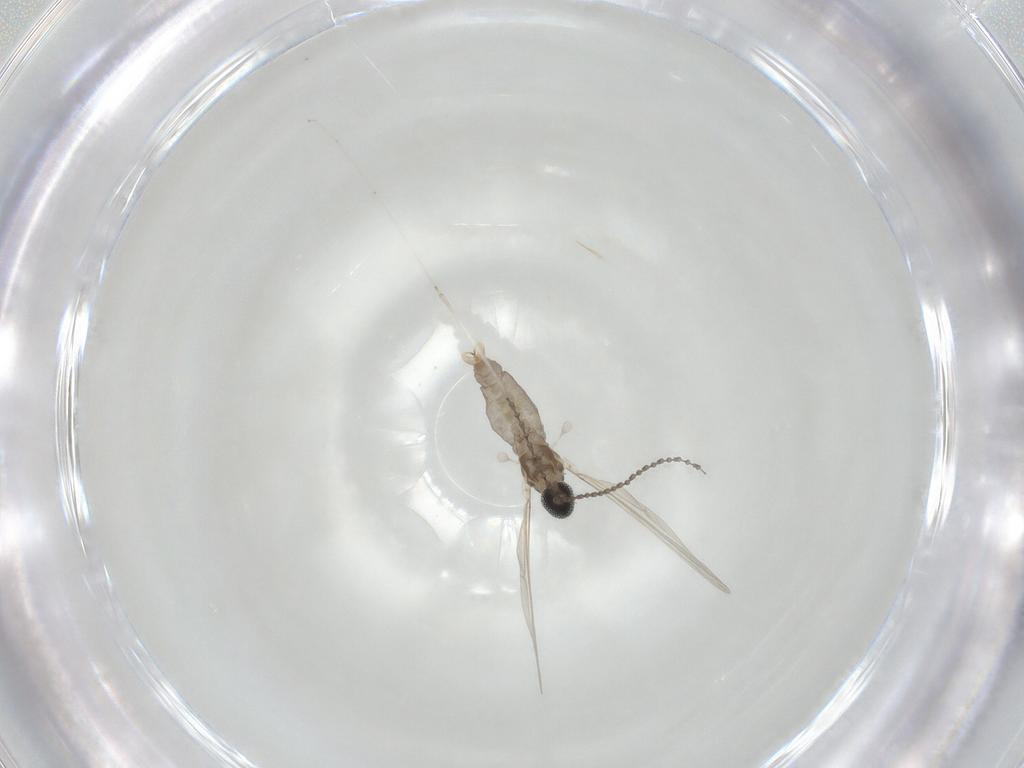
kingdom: Animalia
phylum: Arthropoda
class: Insecta
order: Diptera
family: Cecidomyiidae
